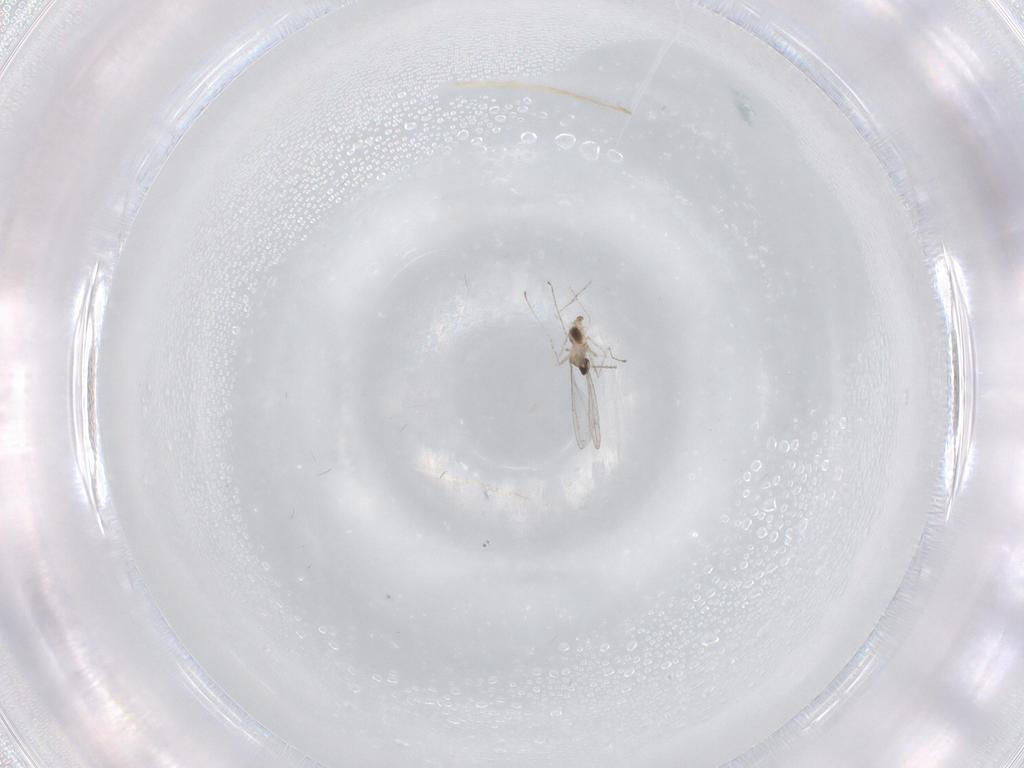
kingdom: Animalia
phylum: Arthropoda
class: Insecta
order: Diptera
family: Cecidomyiidae
